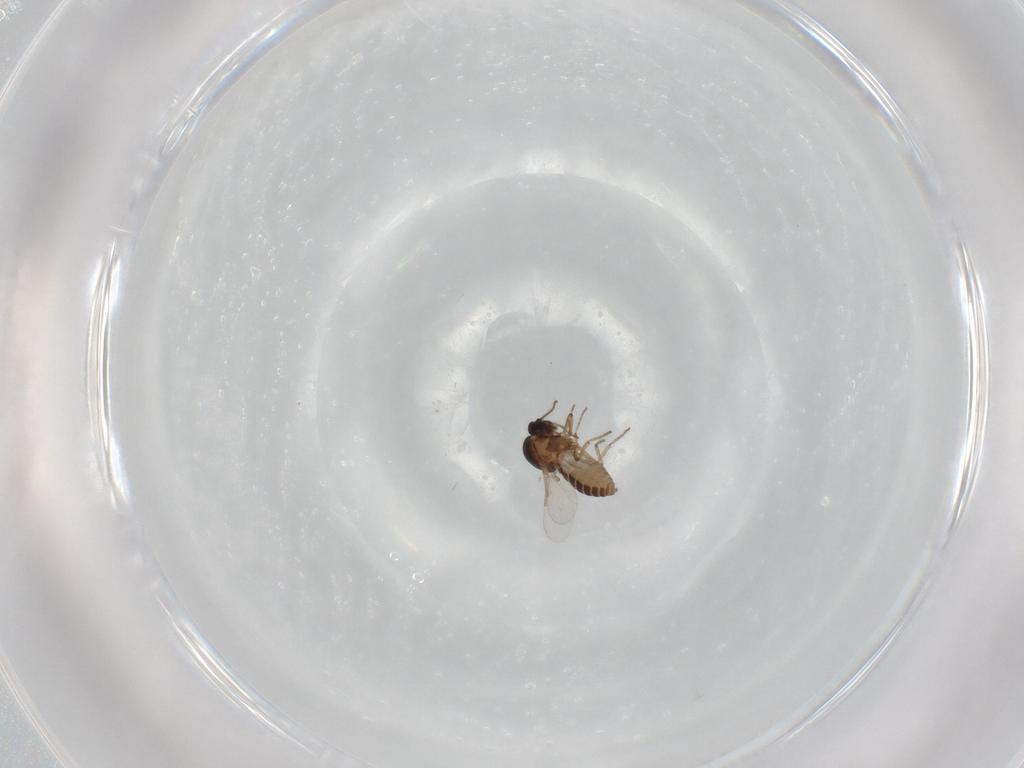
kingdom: Animalia
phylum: Arthropoda
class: Insecta
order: Diptera
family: Ceratopogonidae
